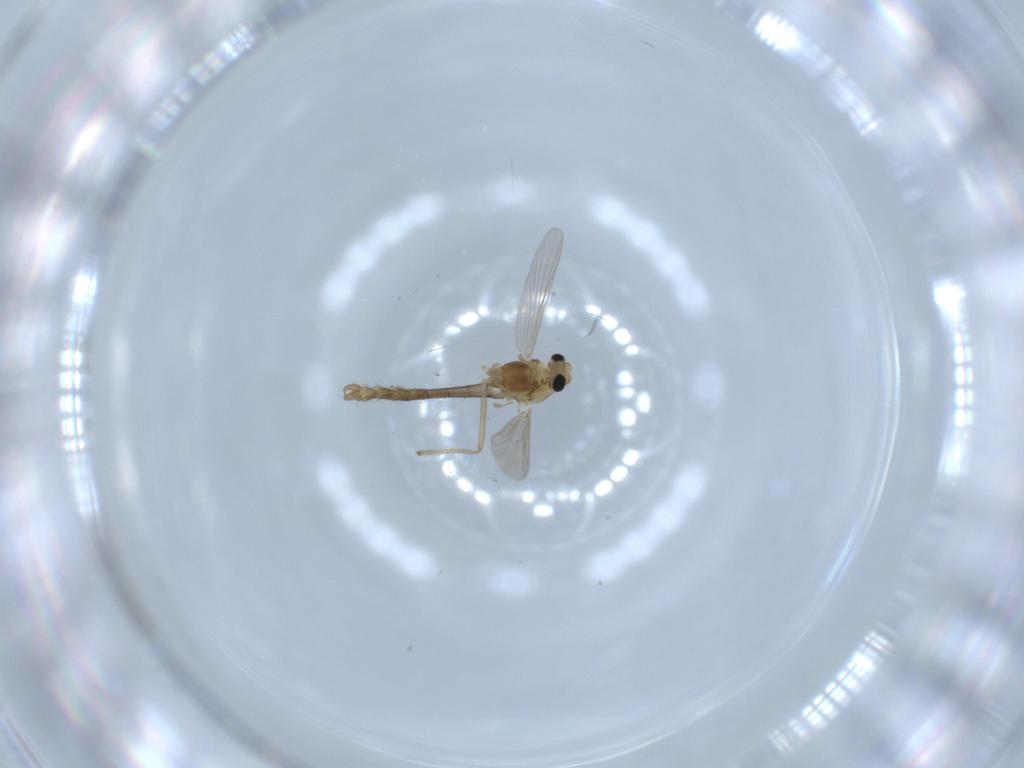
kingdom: Animalia
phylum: Arthropoda
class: Insecta
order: Diptera
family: Chironomidae
